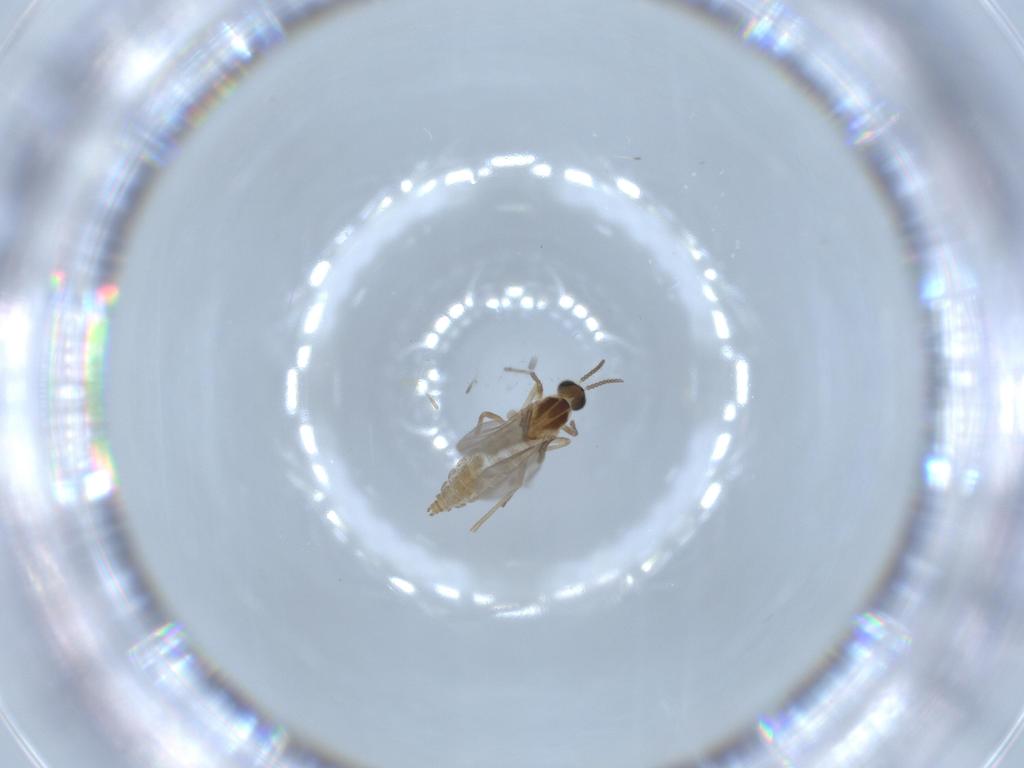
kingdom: Animalia
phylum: Arthropoda
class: Insecta
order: Diptera
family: Cecidomyiidae
